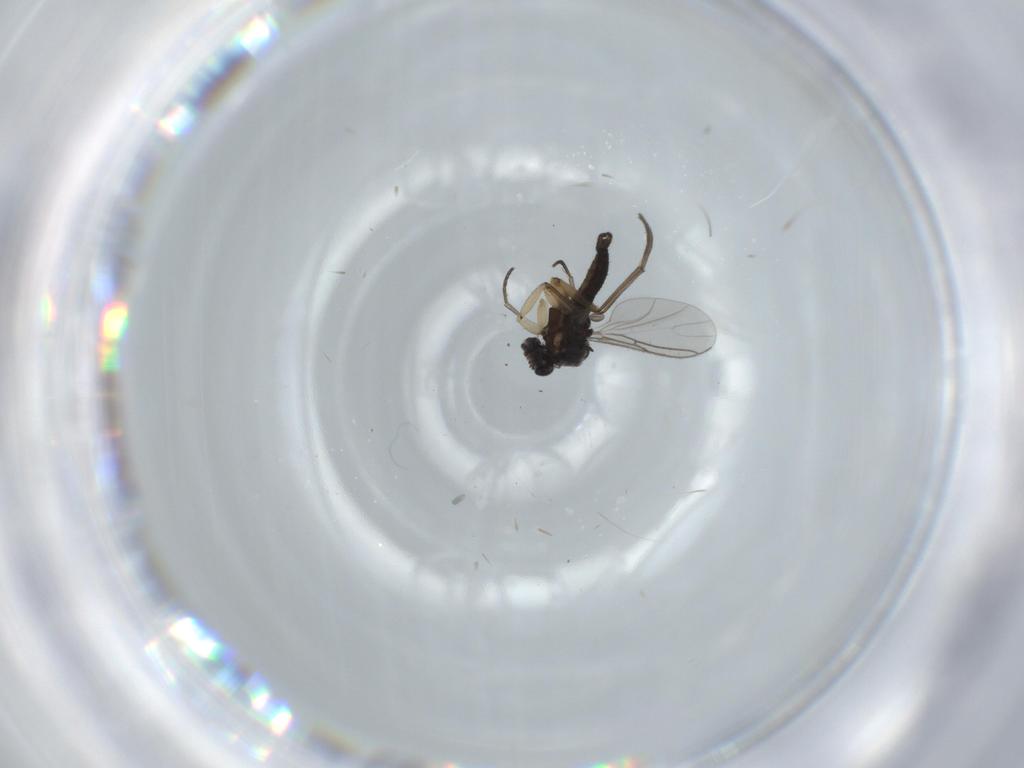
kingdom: Animalia
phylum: Arthropoda
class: Insecta
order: Diptera
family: Sciaridae
